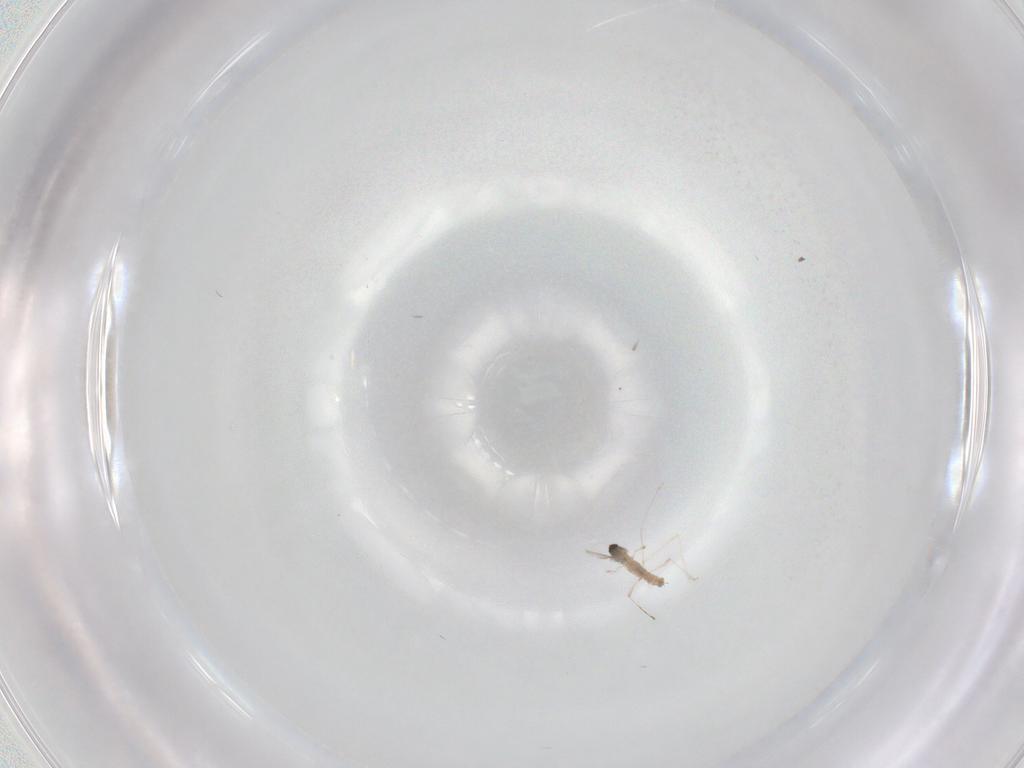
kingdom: Animalia
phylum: Arthropoda
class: Insecta
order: Diptera
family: Cecidomyiidae
